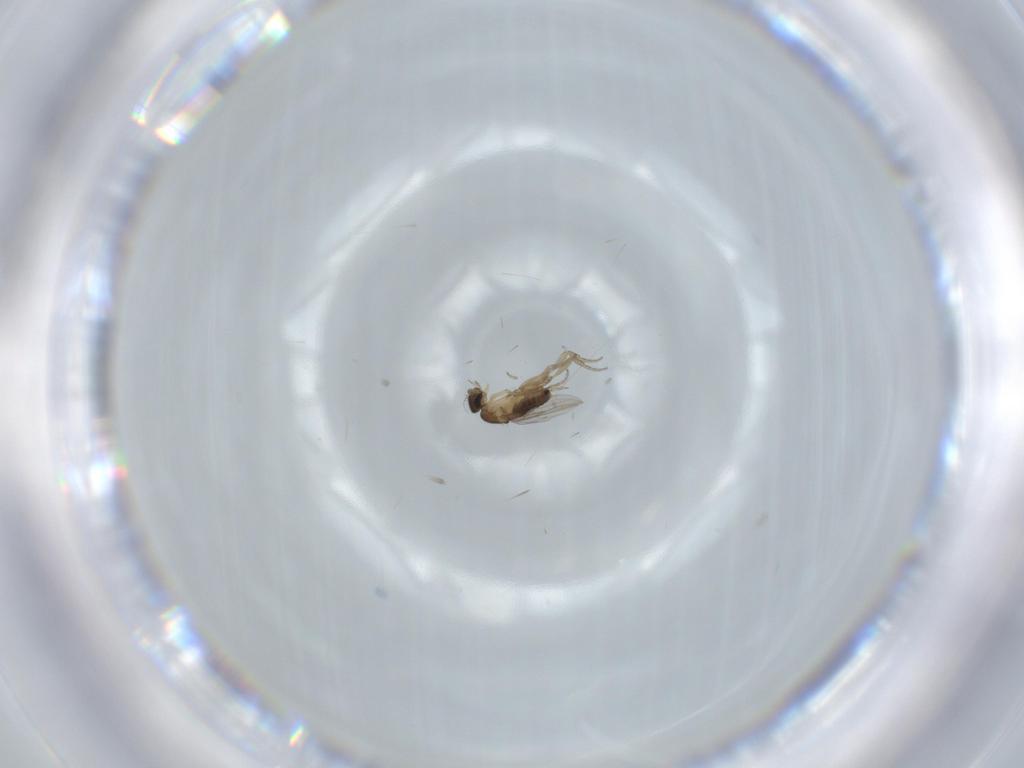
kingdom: Animalia
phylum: Arthropoda
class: Insecta
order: Diptera
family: Phoridae
